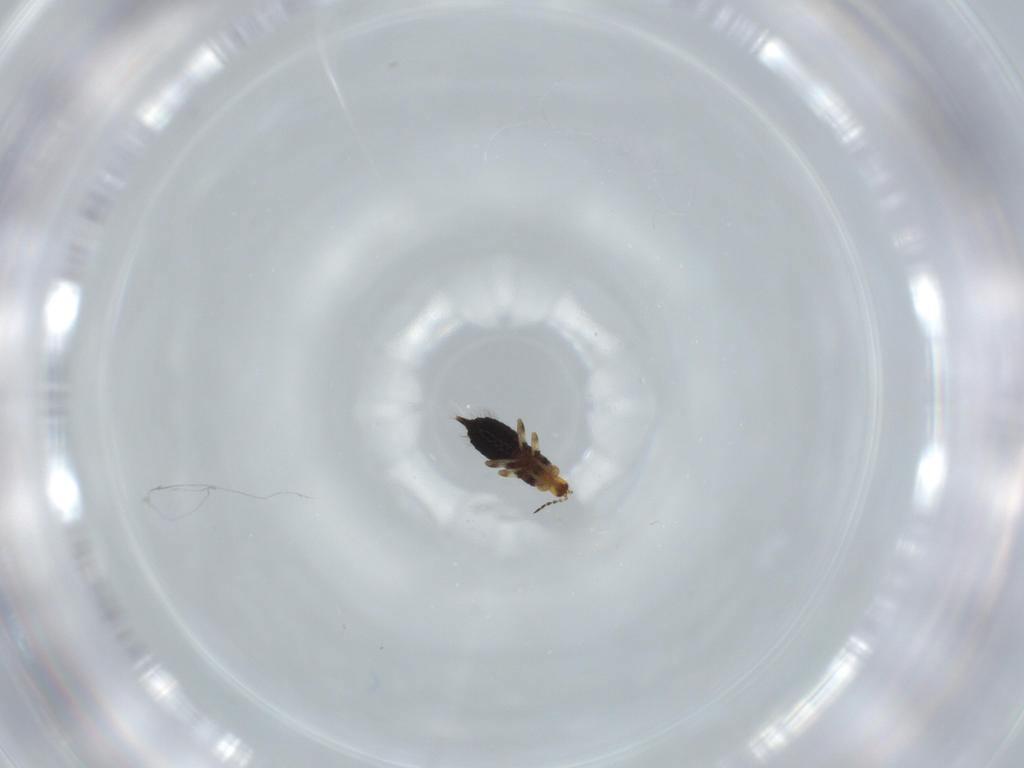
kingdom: Animalia
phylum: Arthropoda
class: Insecta
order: Thysanoptera
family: Phlaeothripidae
